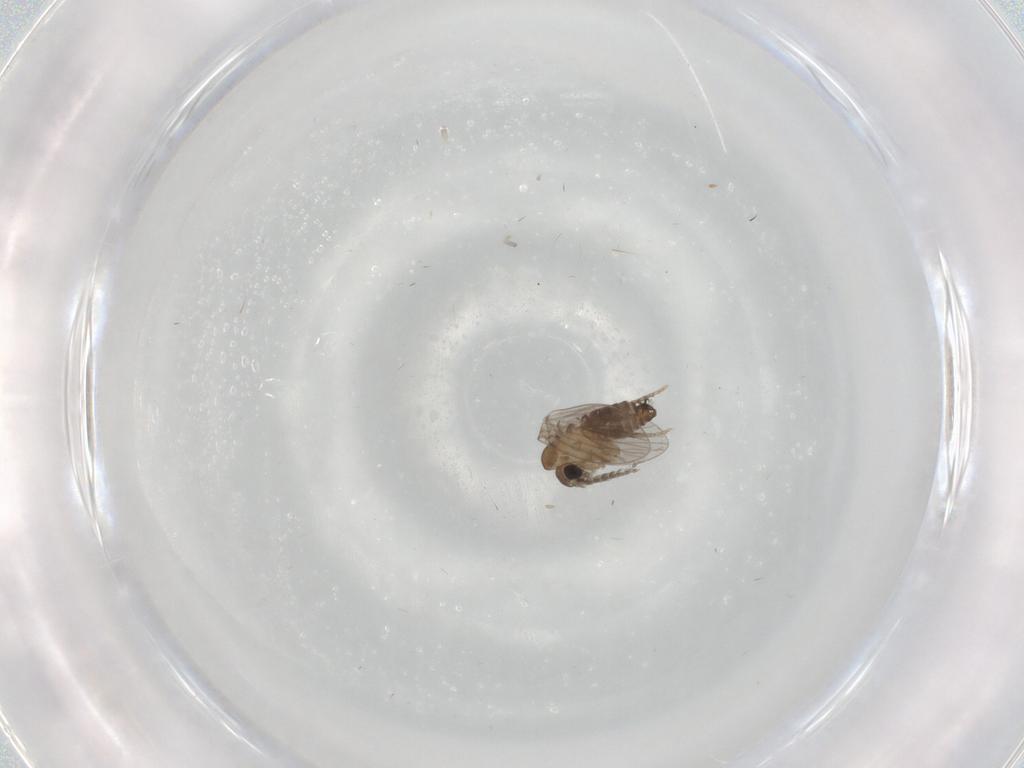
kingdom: Animalia
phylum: Arthropoda
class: Insecta
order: Diptera
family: Psychodidae
